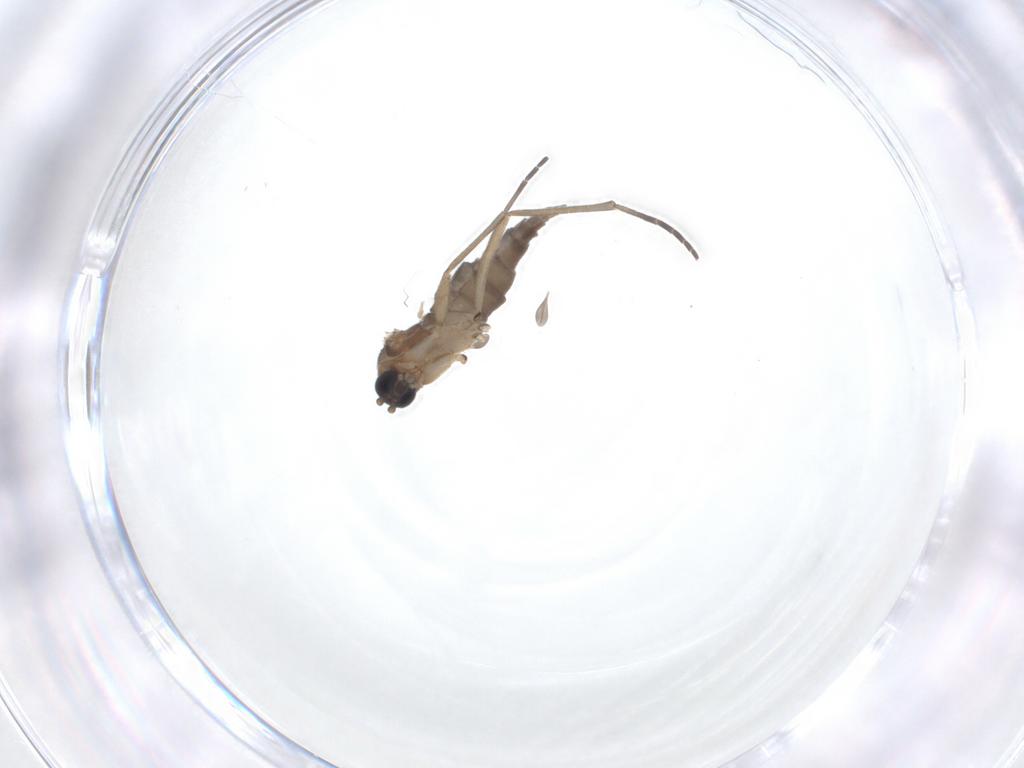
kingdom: Animalia
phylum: Arthropoda
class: Insecta
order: Diptera
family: Sciaridae
